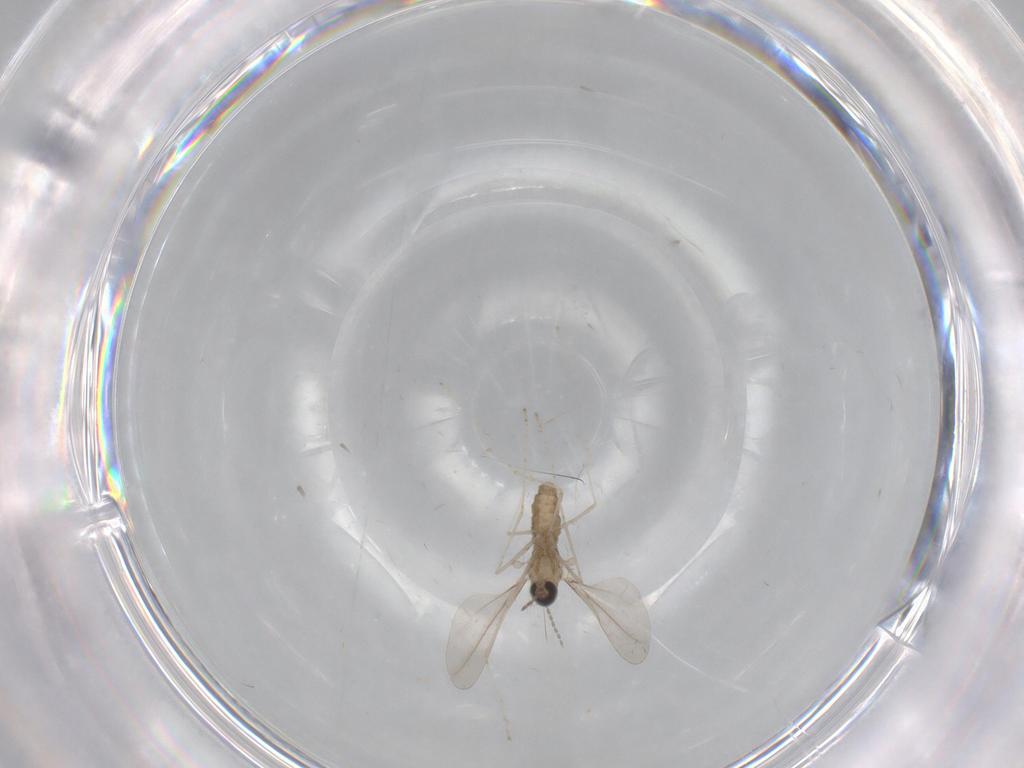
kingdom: Animalia
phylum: Arthropoda
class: Insecta
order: Diptera
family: Cecidomyiidae
